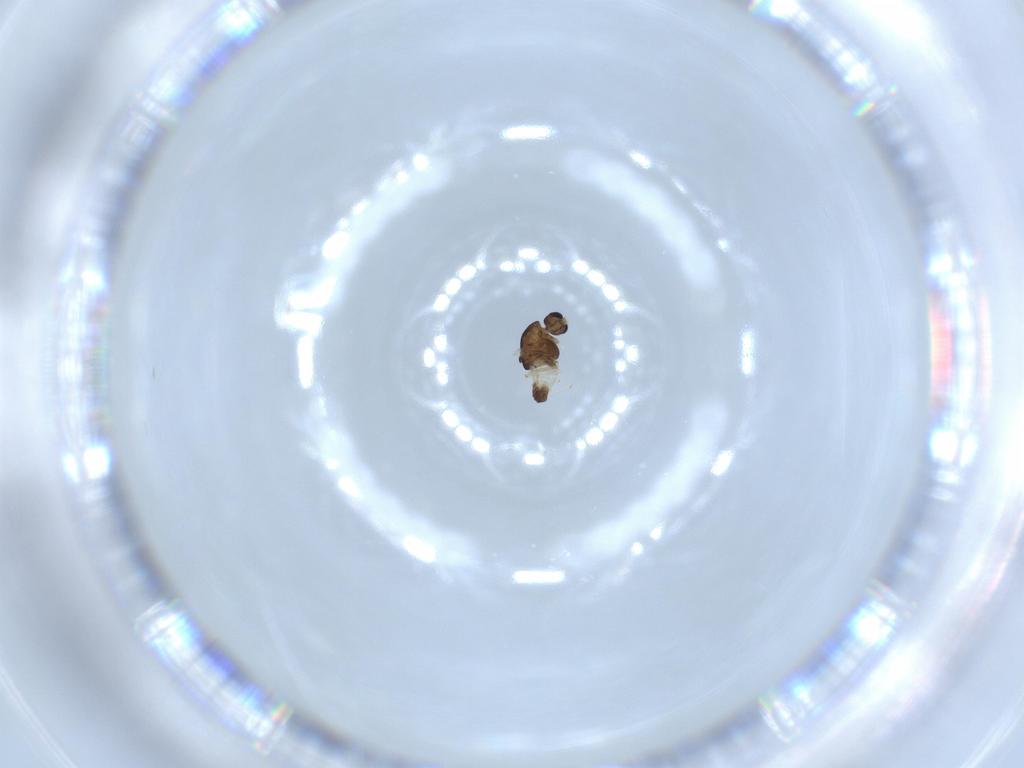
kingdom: Animalia
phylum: Arthropoda
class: Insecta
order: Diptera
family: Chironomidae
